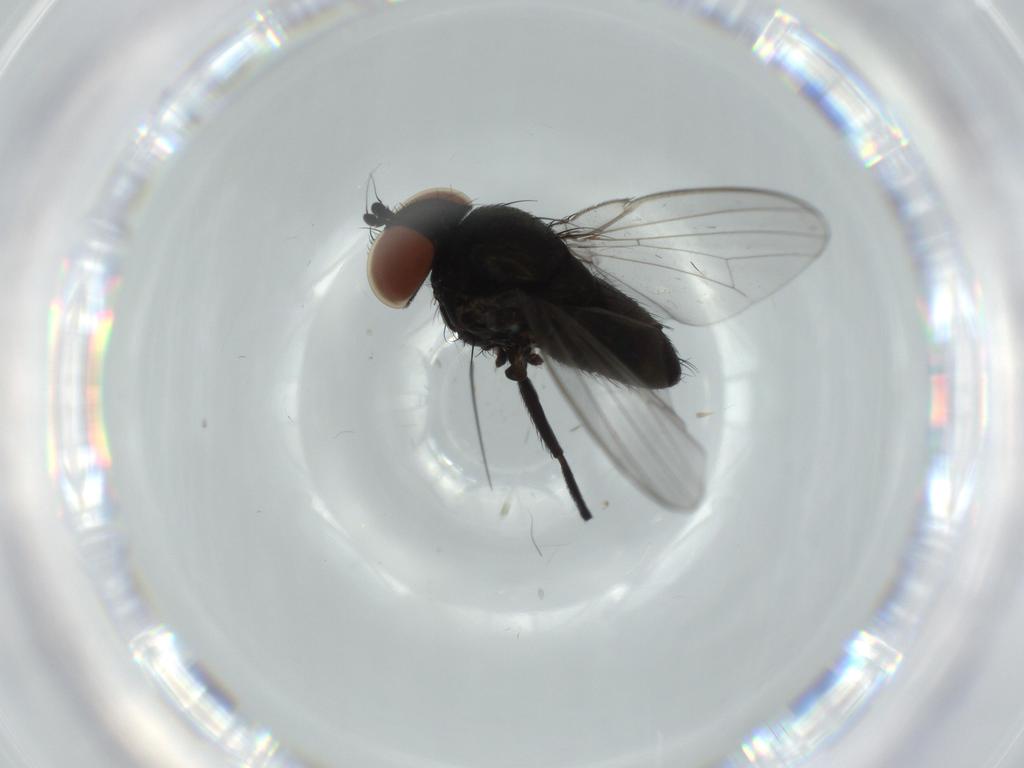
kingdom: Animalia
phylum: Arthropoda
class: Insecta
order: Diptera
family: Milichiidae
